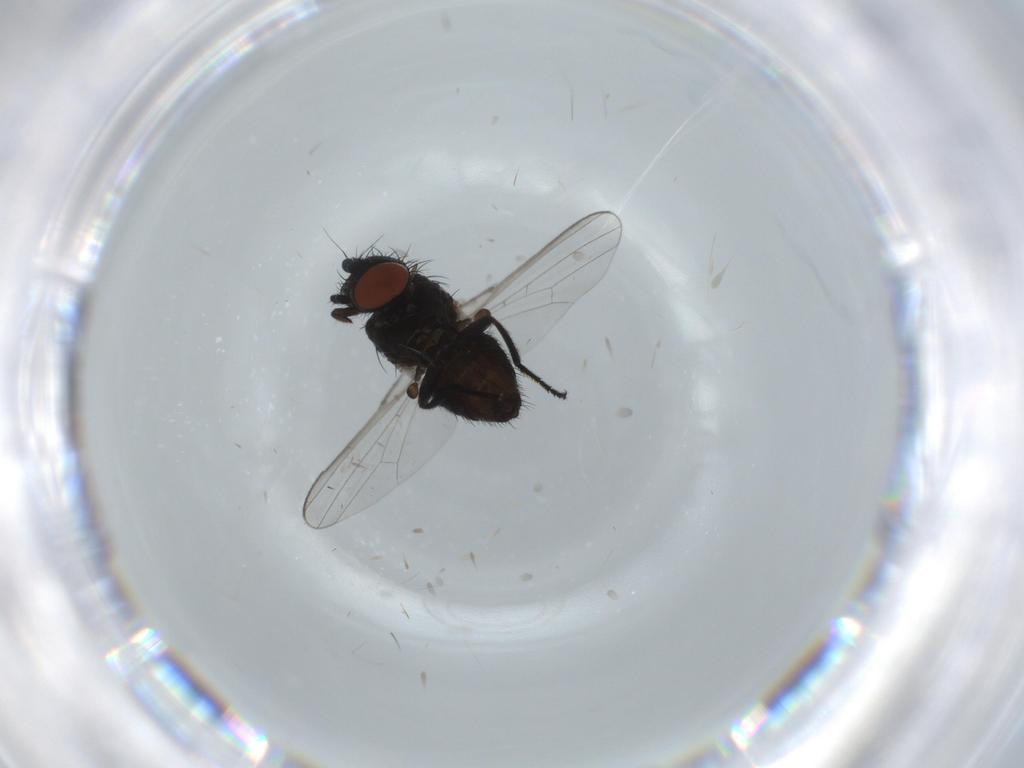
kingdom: Animalia
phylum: Arthropoda
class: Insecta
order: Diptera
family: Milichiidae
